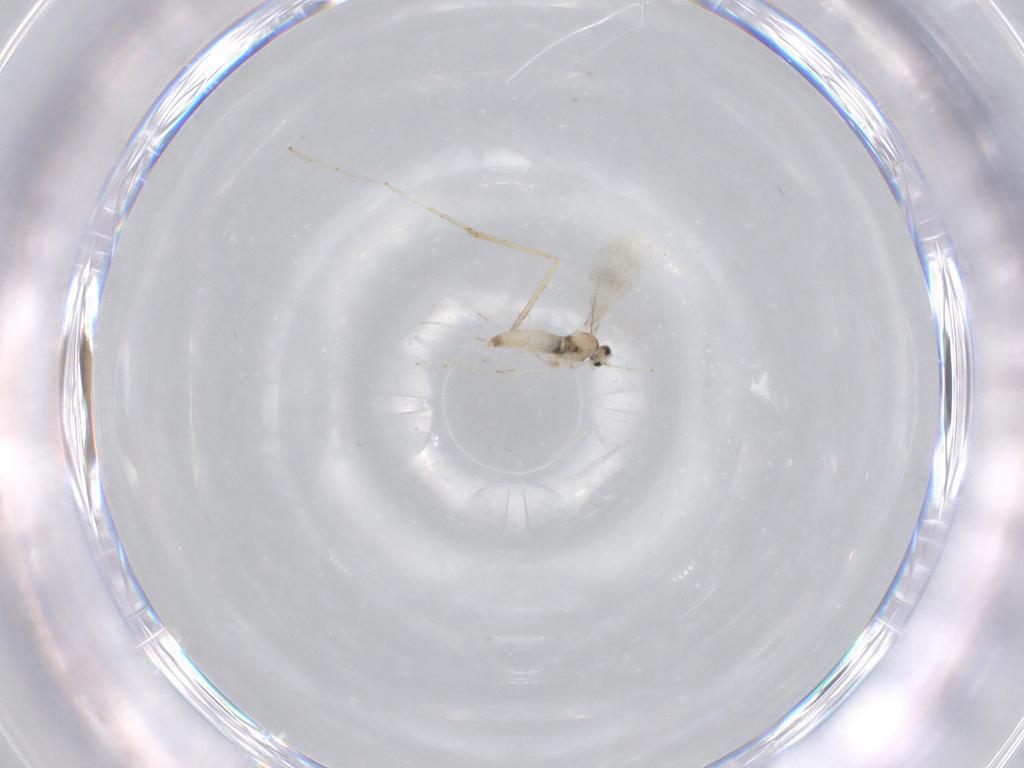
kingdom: Animalia
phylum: Arthropoda
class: Insecta
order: Diptera
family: Cecidomyiidae
